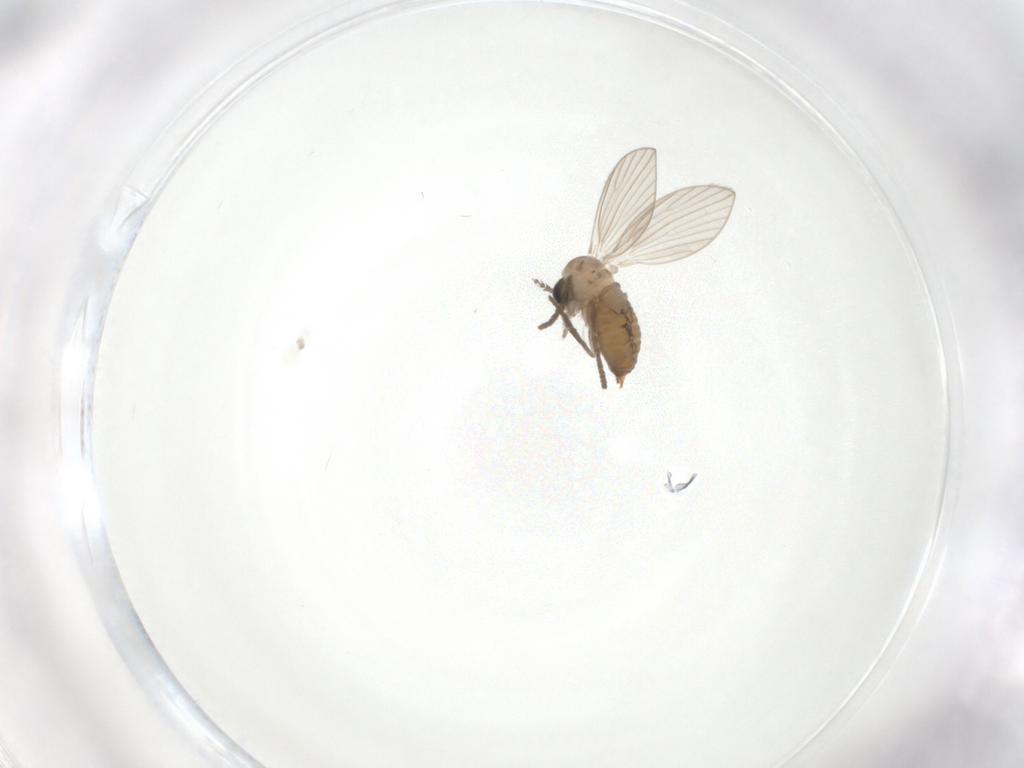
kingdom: Animalia
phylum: Arthropoda
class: Insecta
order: Diptera
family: Psychodidae
